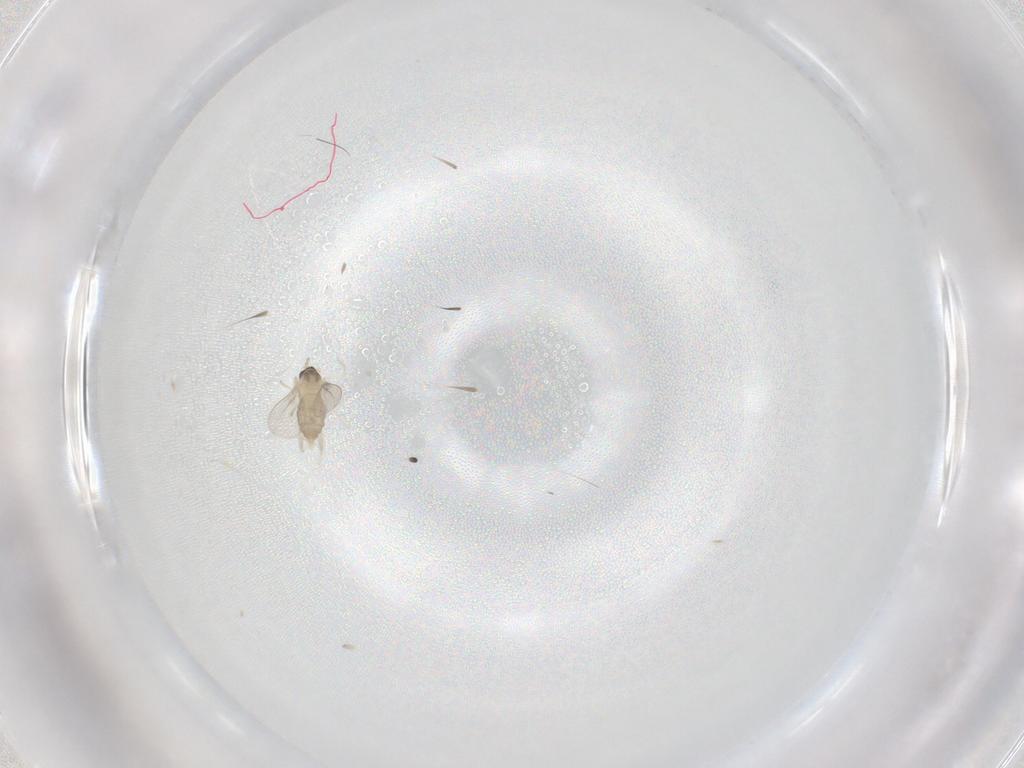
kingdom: Animalia
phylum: Arthropoda
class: Insecta
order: Diptera
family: Cecidomyiidae
